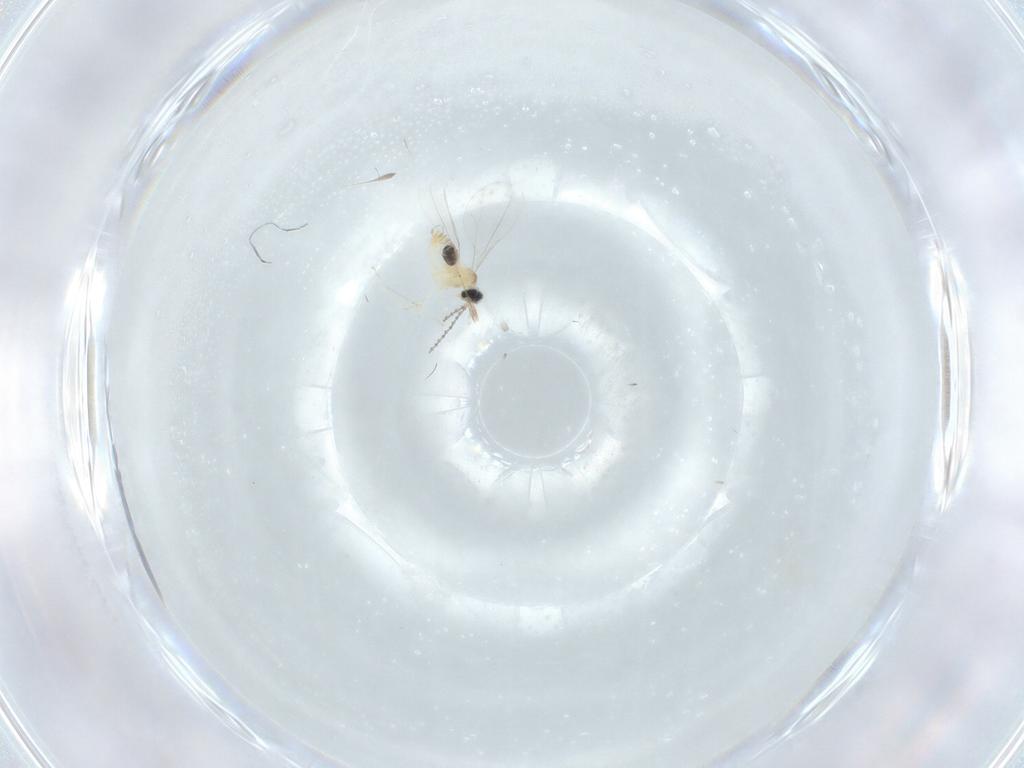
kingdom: Animalia
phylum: Arthropoda
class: Insecta
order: Diptera
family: Cecidomyiidae
